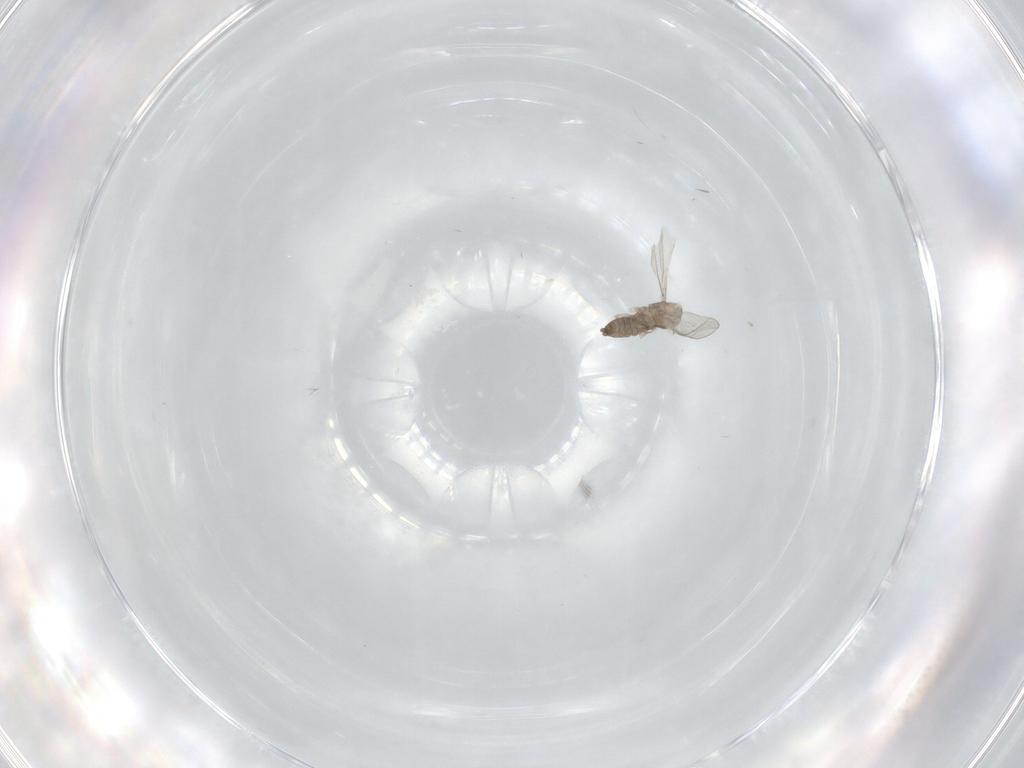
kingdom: Animalia
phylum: Arthropoda
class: Insecta
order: Diptera
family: Cecidomyiidae
